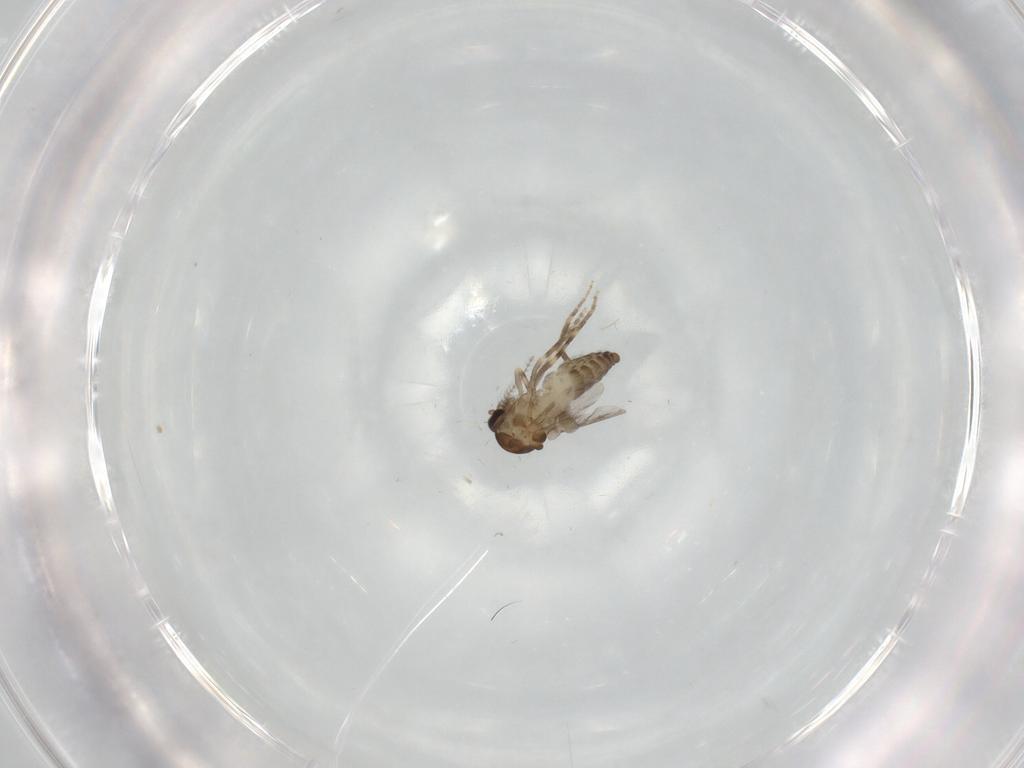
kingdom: Animalia
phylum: Arthropoda
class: Insecta
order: Diptera
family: Ceratopogonidae
